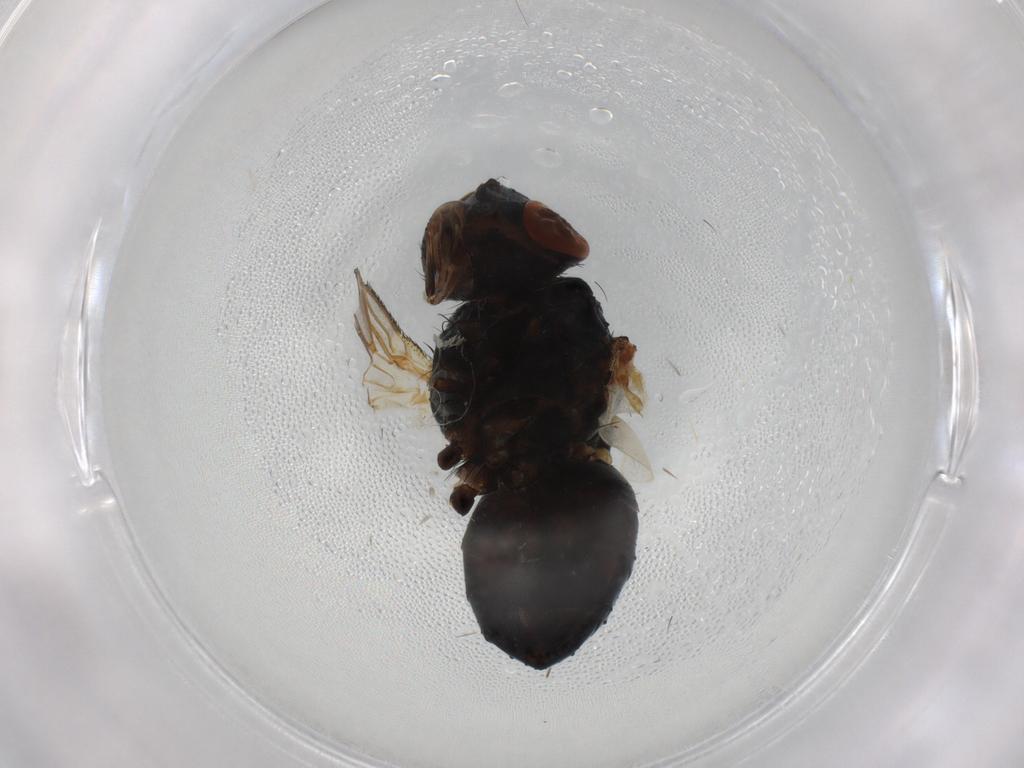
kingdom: Animalia
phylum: Arthropoda
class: Insecta
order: Diptera
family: Tachinidae
